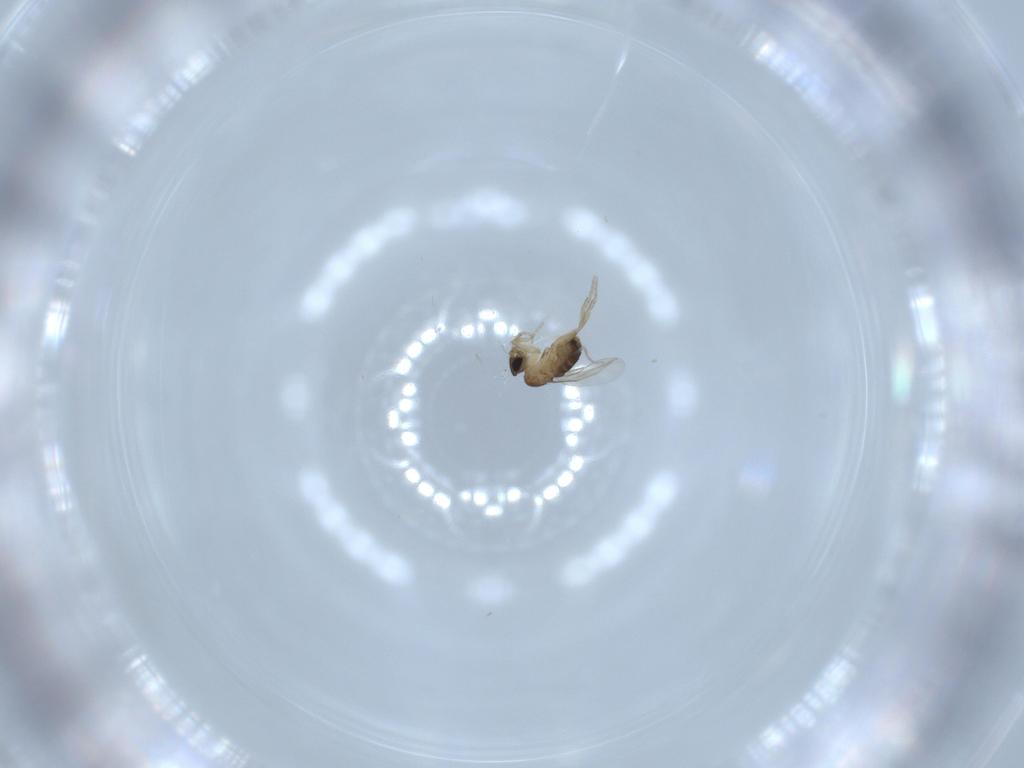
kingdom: Animalia
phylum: Arthropoda
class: Insecta
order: Diptera
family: Phoridae
